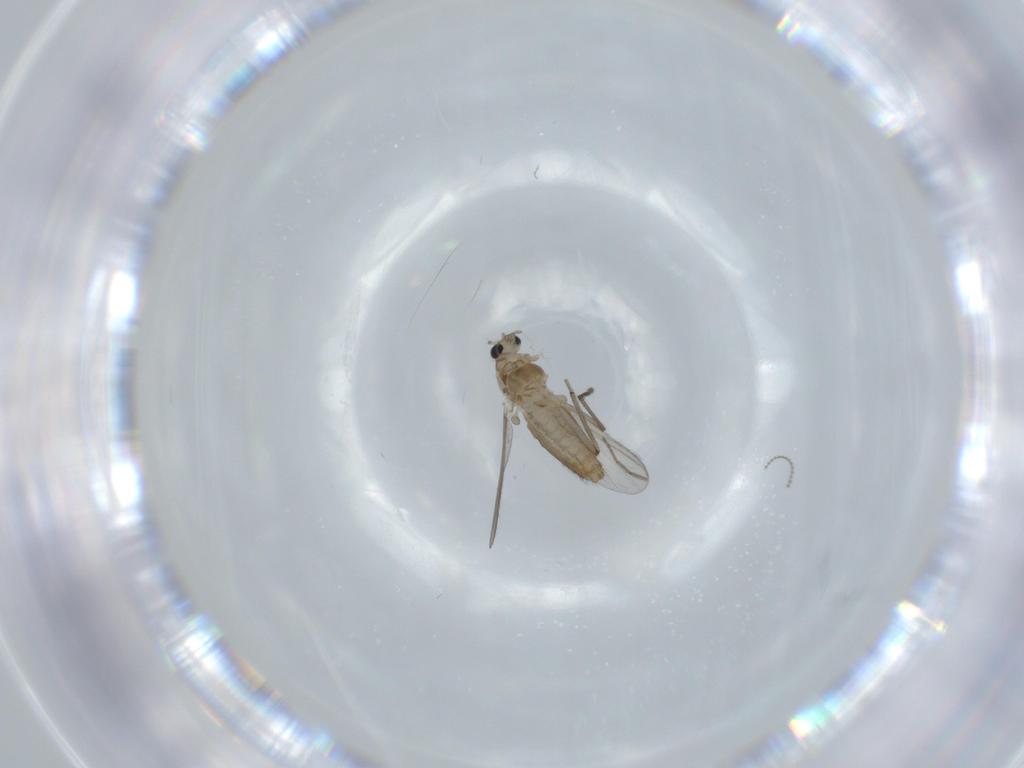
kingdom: Animalia
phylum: Arthropoda
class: Insecta
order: Diptera
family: Chironomidae
